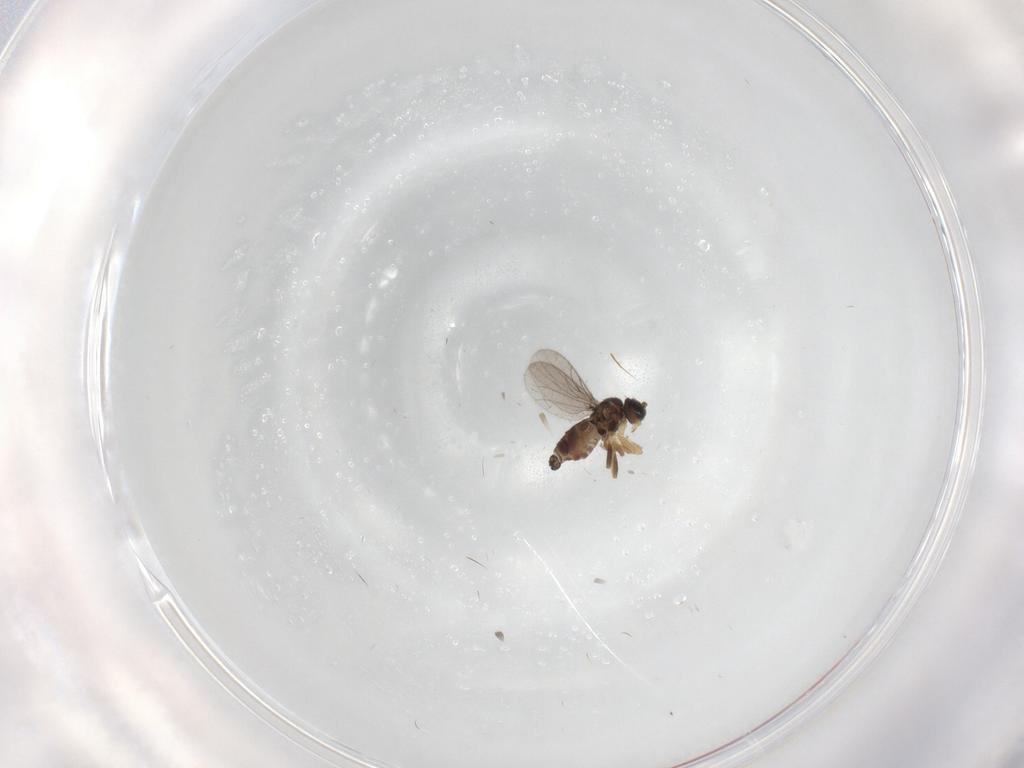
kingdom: Animalia
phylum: Arthropoda
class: Insecta
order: Diptera
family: Hybotidae
